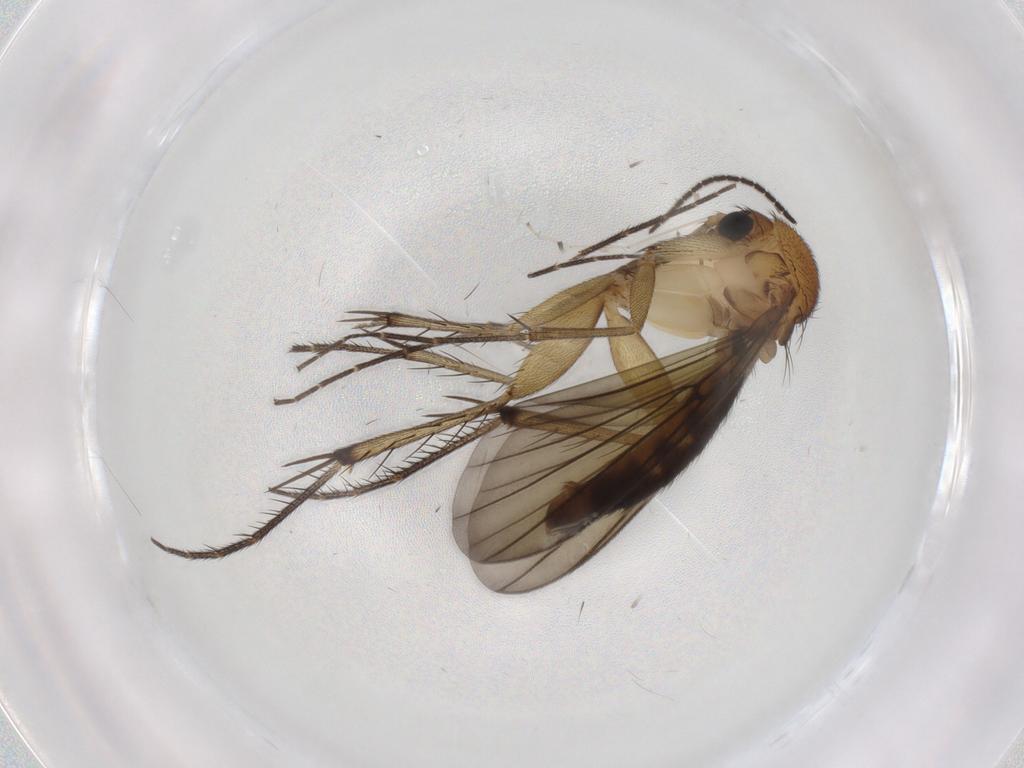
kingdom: Animalia
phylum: Arthropoda
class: Insecta
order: Diptera
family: Mycetophilidae
